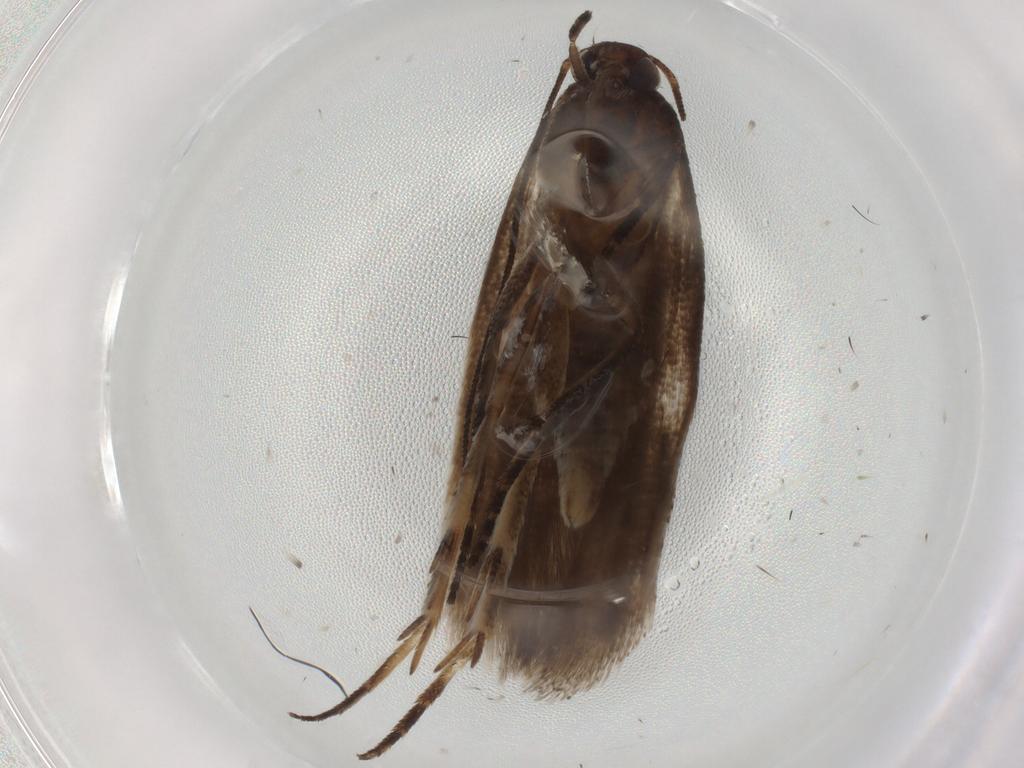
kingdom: Animalia
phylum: Arthropoda
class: Insecta
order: Lepidoptera
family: Gelechiidae
